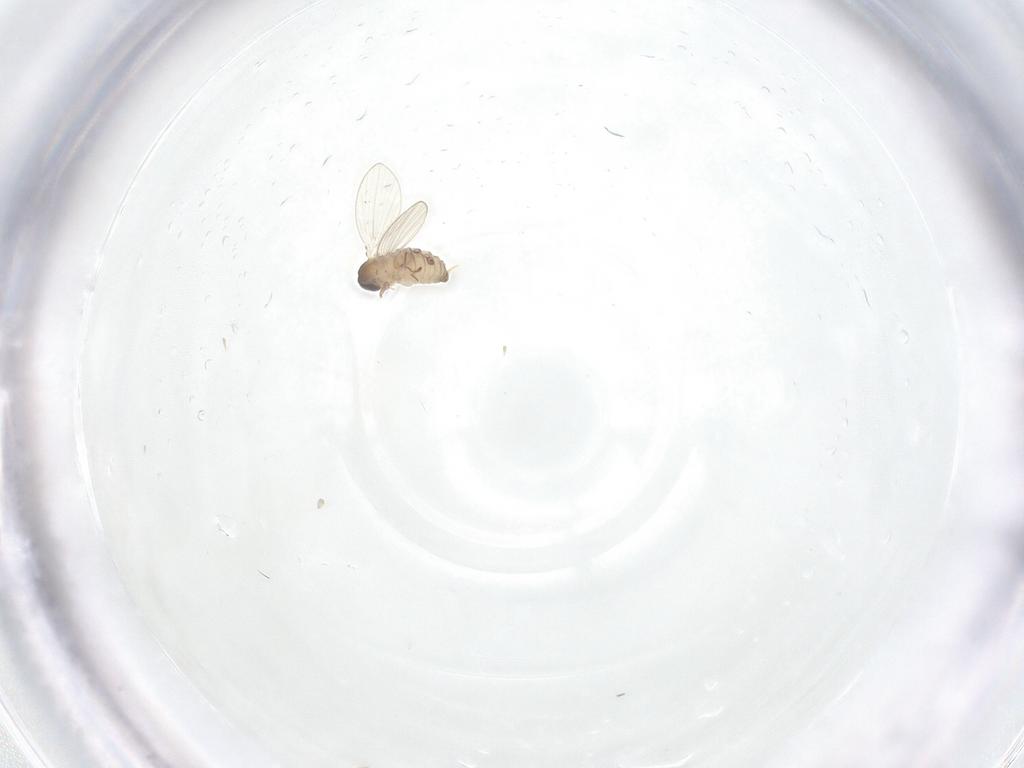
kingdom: Animalia
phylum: Arthropoda
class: Insecta
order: Diptera
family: Psychodidae
